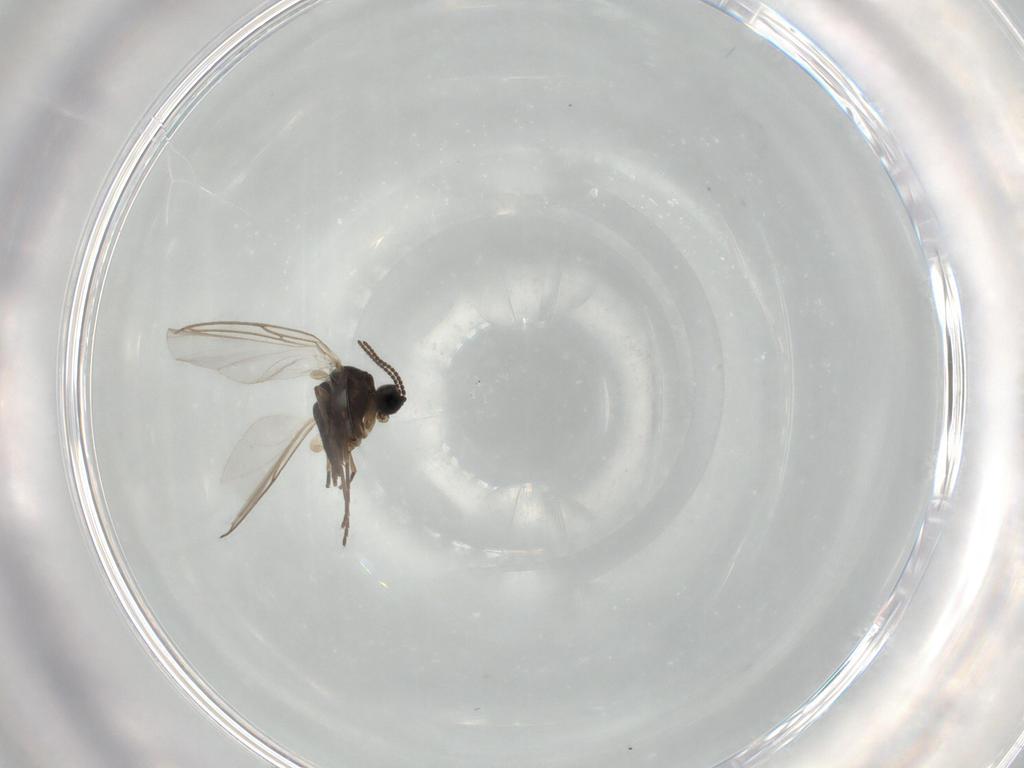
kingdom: Animalia
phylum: Arthropoda
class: Insecta
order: Diptera
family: Sciaridae
